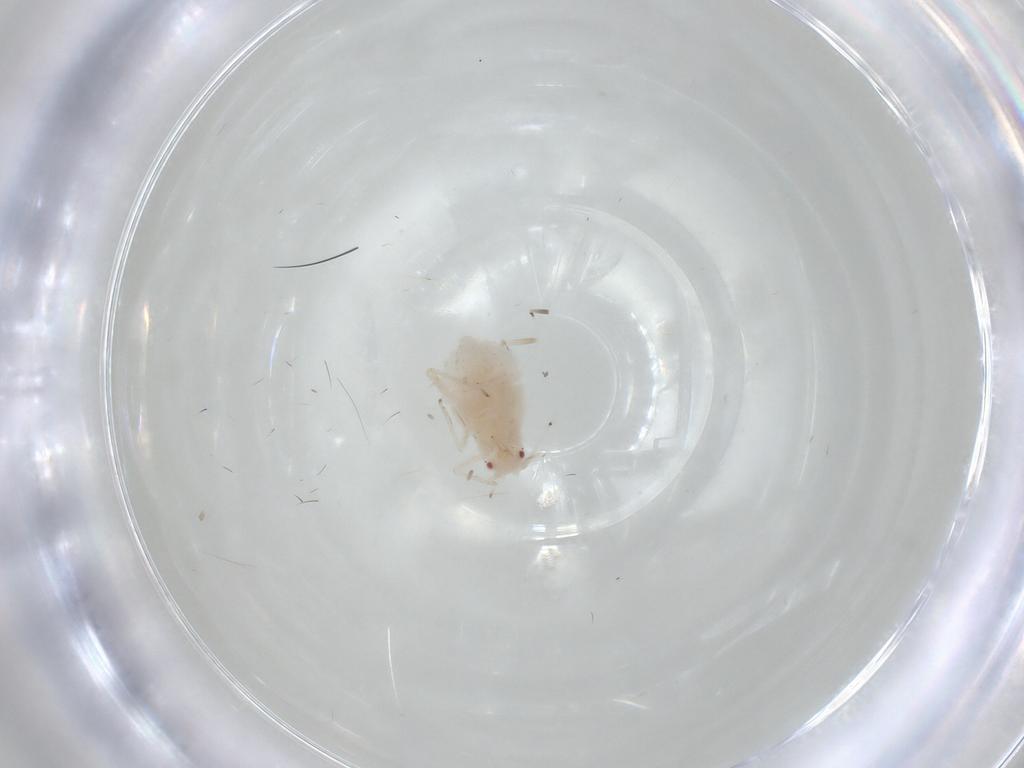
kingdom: Animalia
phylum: Arthropoda
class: Insecta
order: Hemiptera
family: Aphididae
